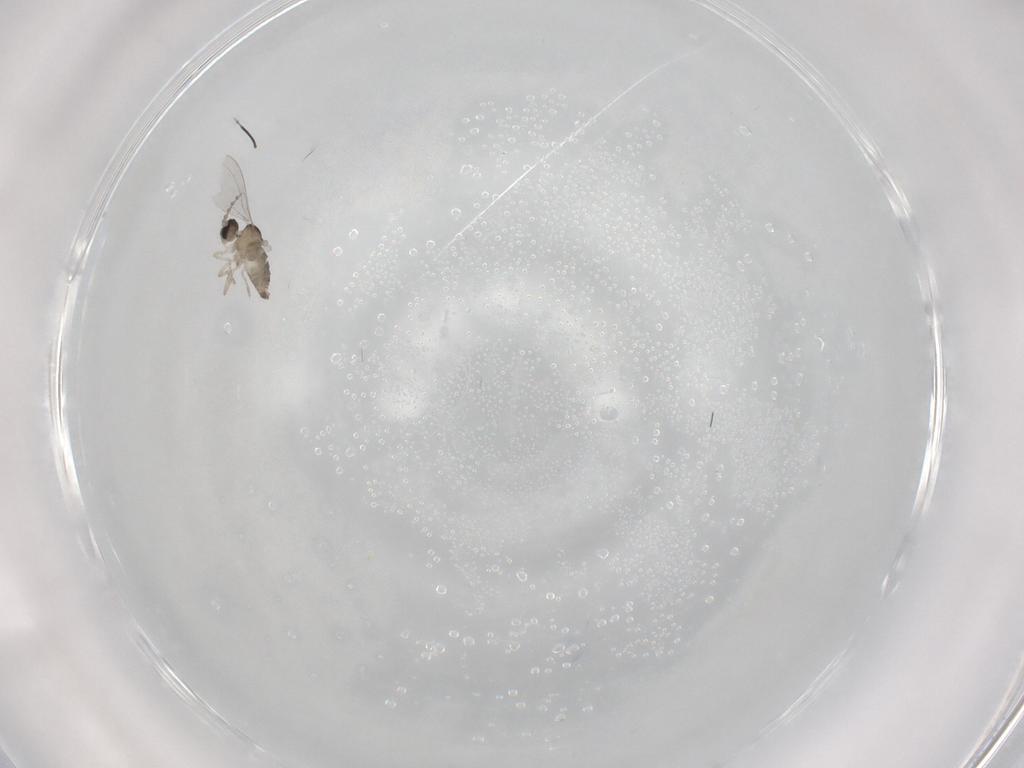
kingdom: Animalia
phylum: Arthropoda
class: Insecta
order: Diptera
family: Cecidomyiidae
